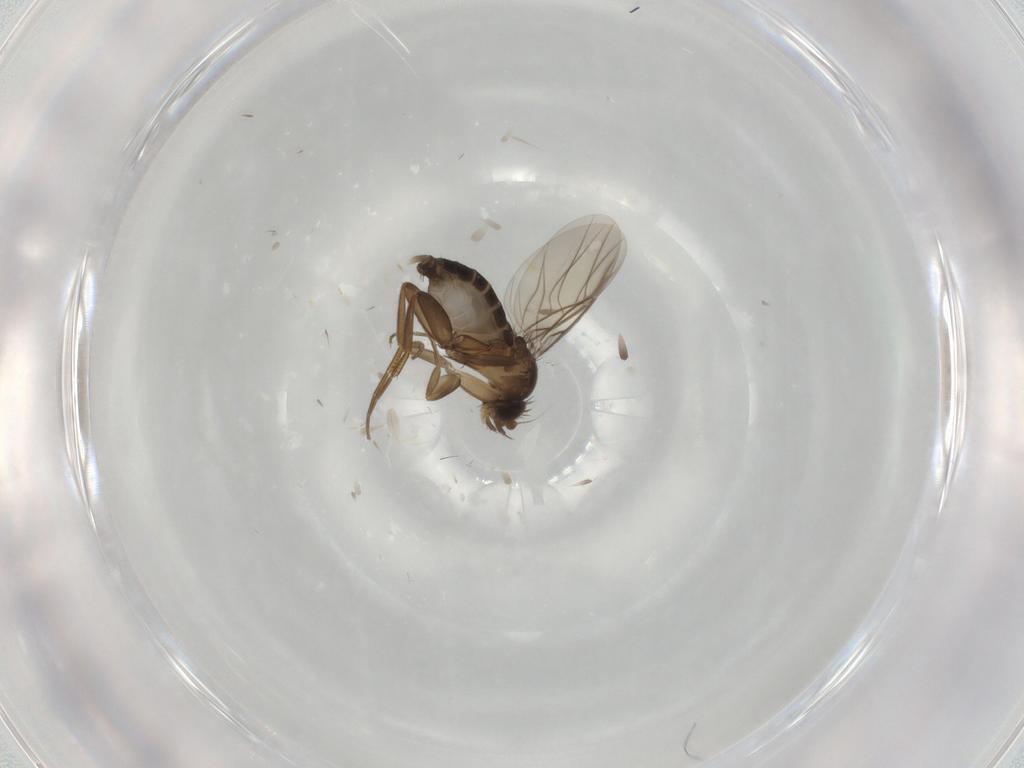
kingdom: Animalia
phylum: Arthropoda
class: Insecta
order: Diptera
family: Phoridae
